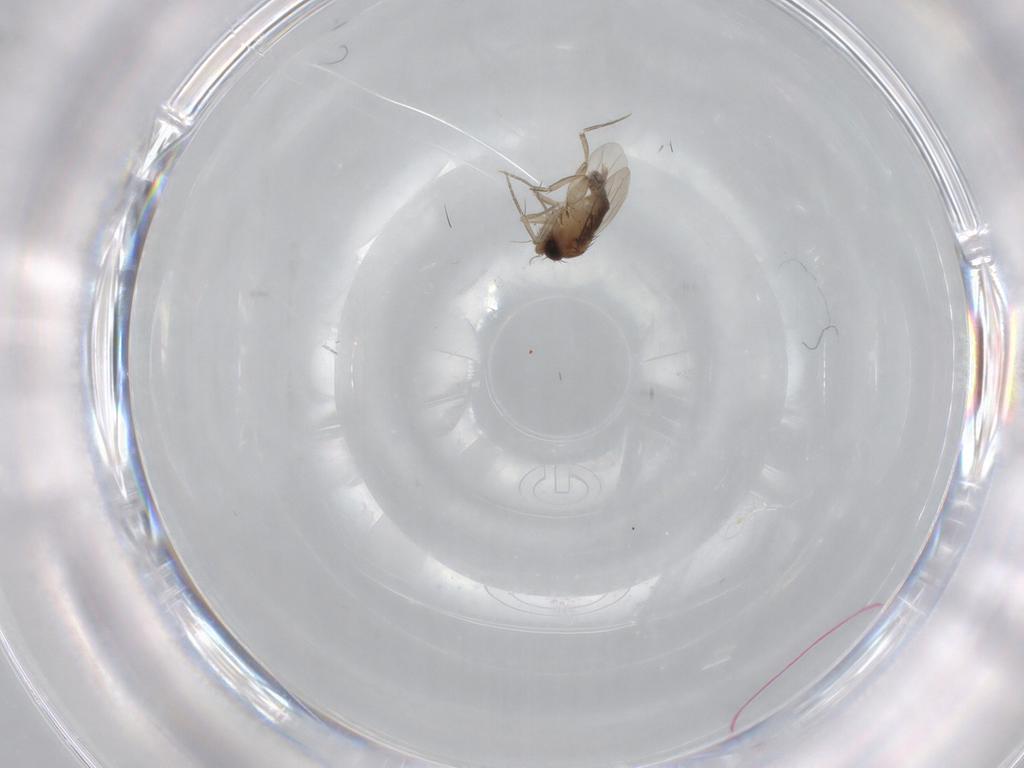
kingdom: Animalia
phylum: Arthropoda
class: Insecta
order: Diptera
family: Phoridae
